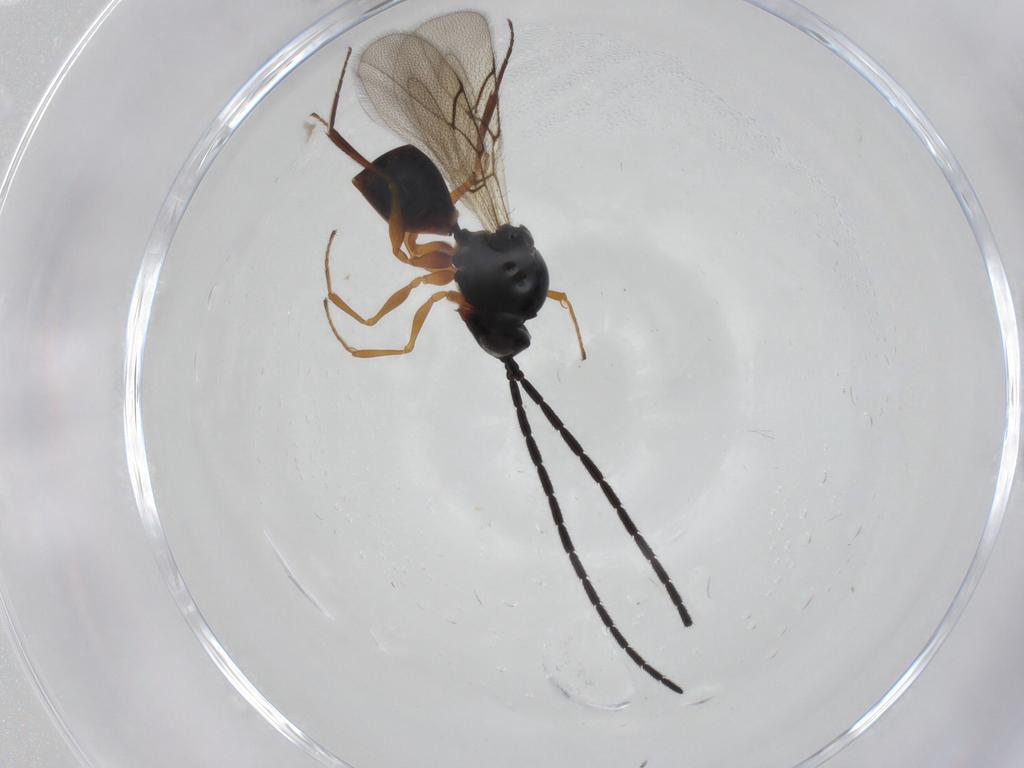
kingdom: Animalia
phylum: Arthropoda
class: Insecta
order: Hymenoptera
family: Figitidae
